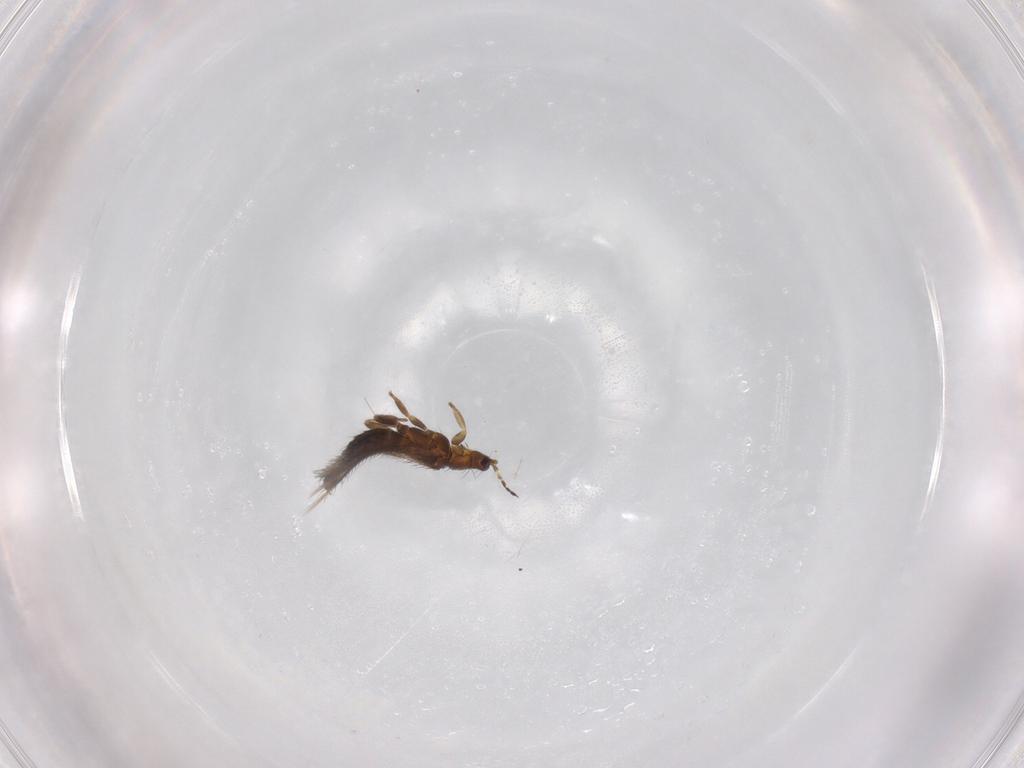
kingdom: Animalia
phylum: Arthropoda
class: Insecta
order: Thysanoptera
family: Thripidae
